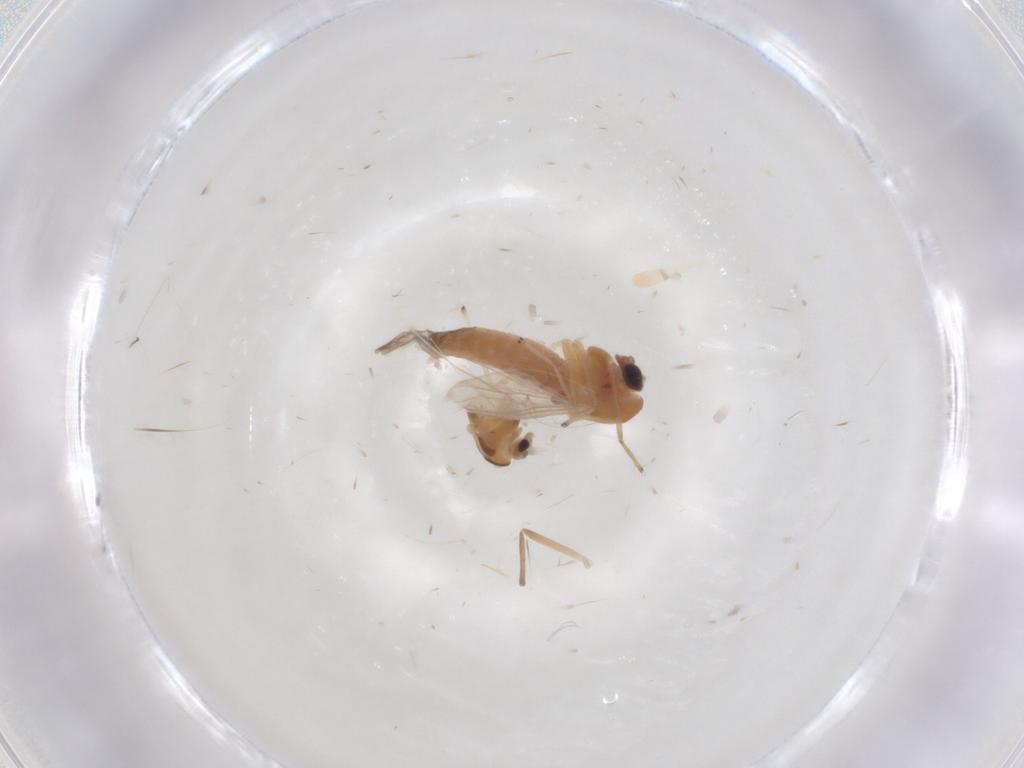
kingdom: Animalia
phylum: Arthropoda
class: Insecta
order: Diptera
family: Chironomidae
